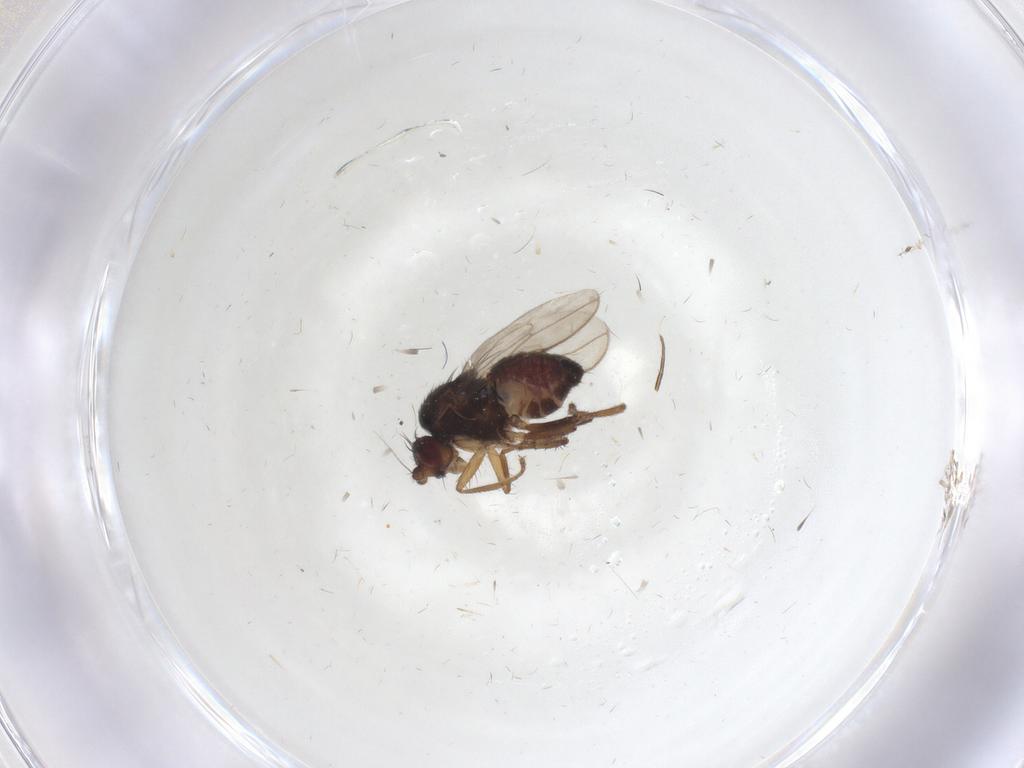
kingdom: Animalia
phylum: Arthropoda
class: Insecta
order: Diptera
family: Sphaeroceridae
